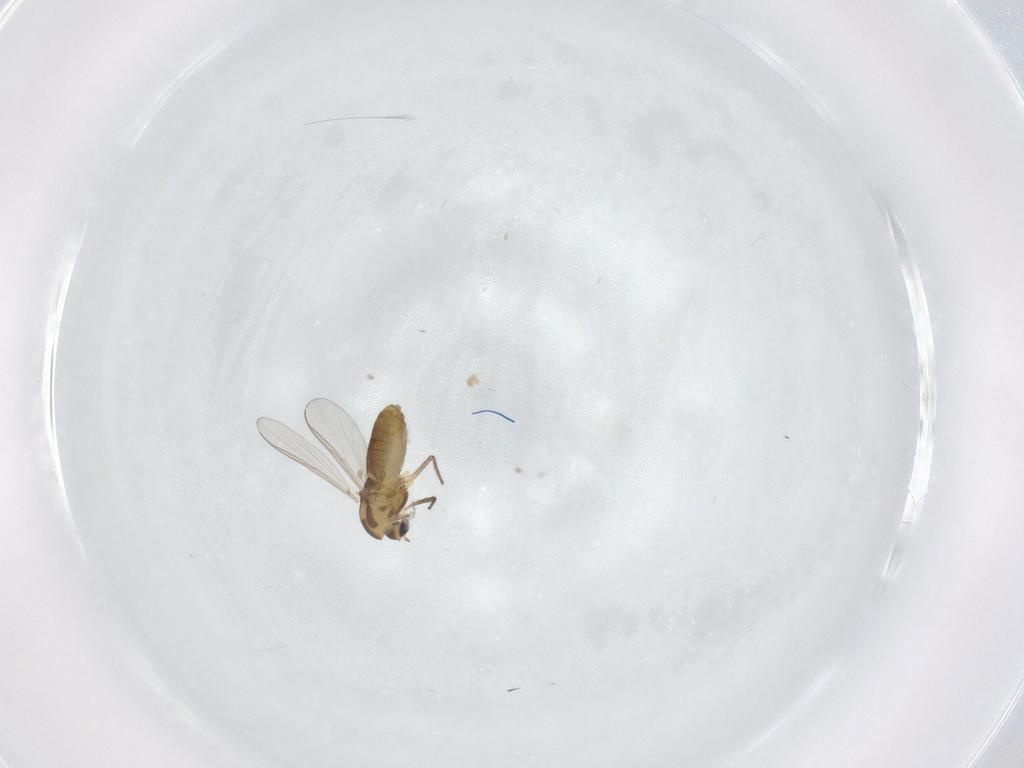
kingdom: Animalia
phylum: Arthropoda
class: Insecta
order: Diptera
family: Chironomidae
